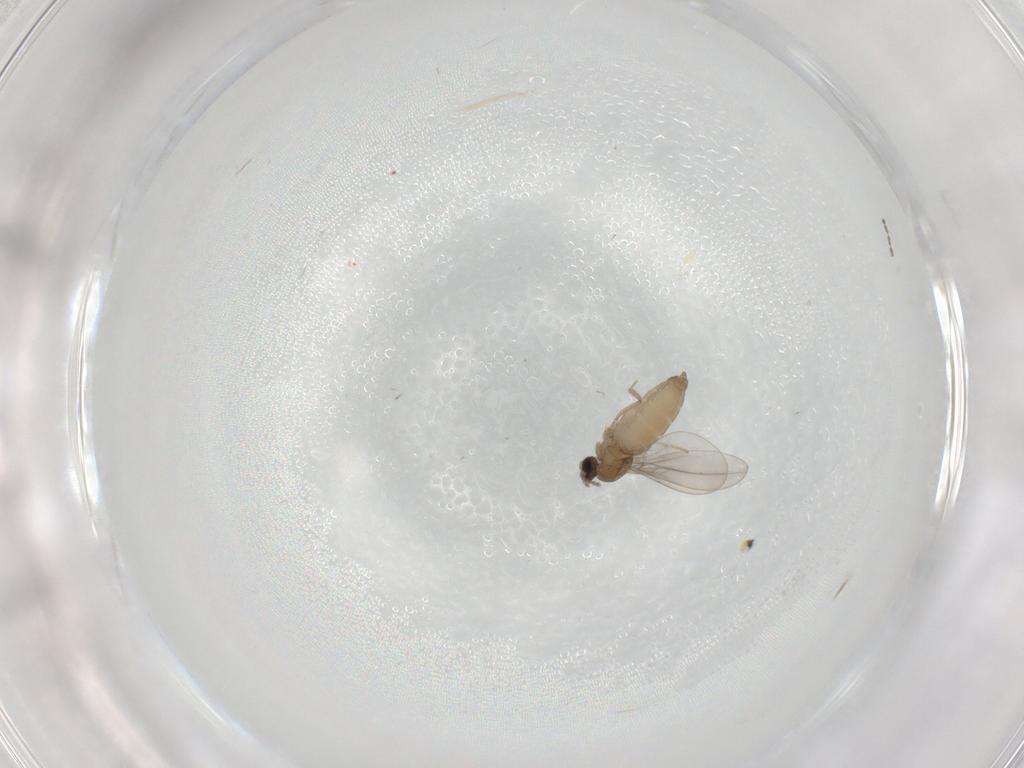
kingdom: Animalia
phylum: Arthropoda
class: Insecta
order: Diptera
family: Cecidomyiidae
